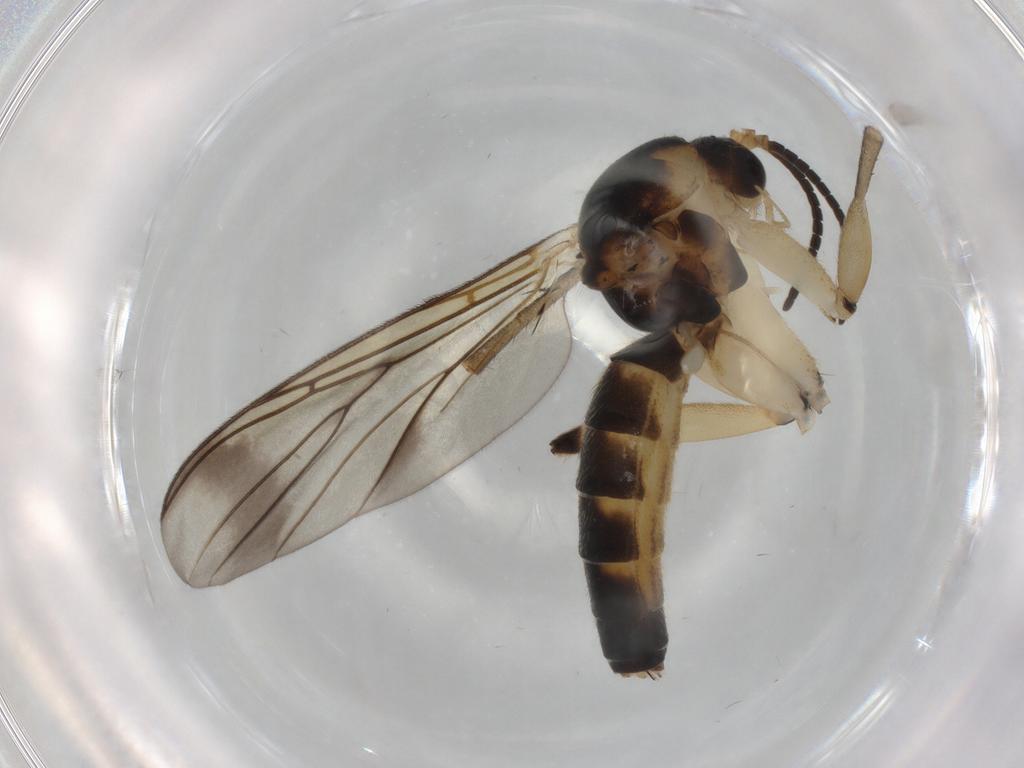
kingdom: Animalia
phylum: Arthropoda
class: Insecta
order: Diptera
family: Mycetophilidae
